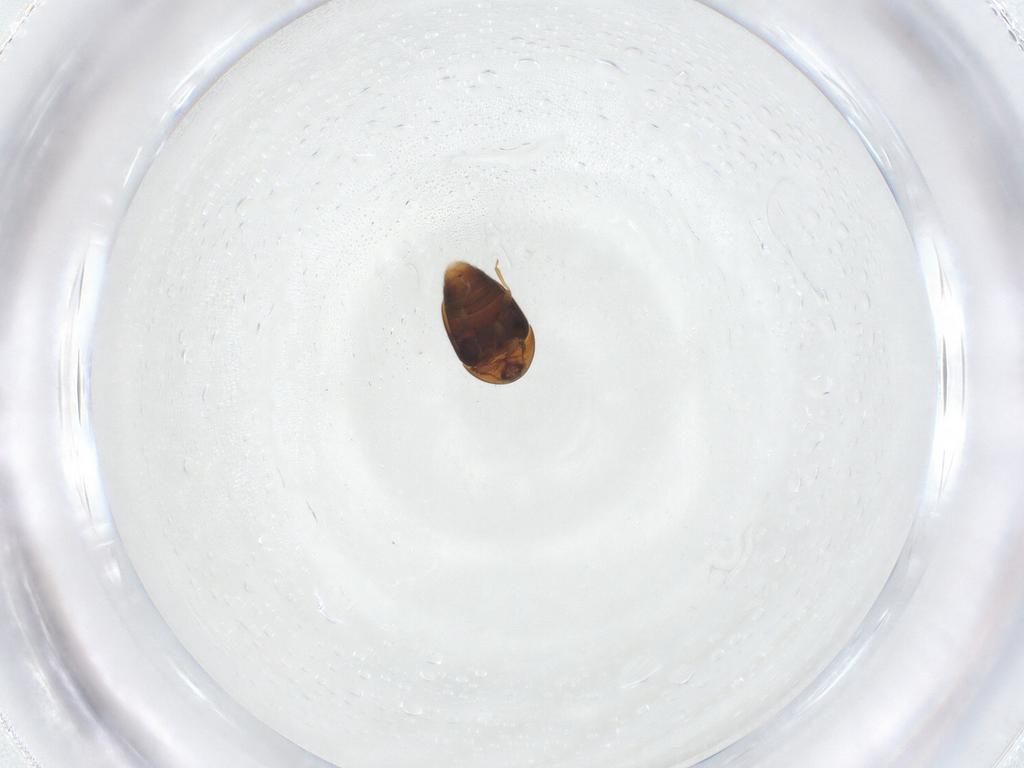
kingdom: Animalia
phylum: Arthropoda
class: Insecta
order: Coleoptera
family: Corylophidae
